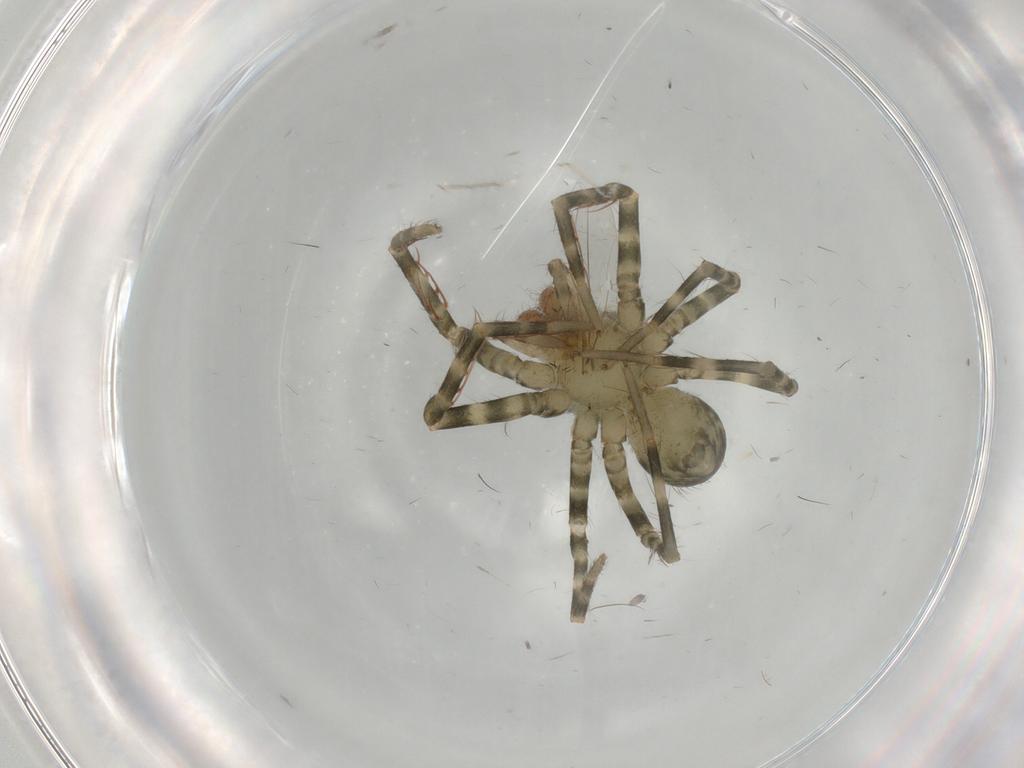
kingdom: Animalia
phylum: Arthropoda
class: Arachnida
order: Araneae
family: Ctenidae
